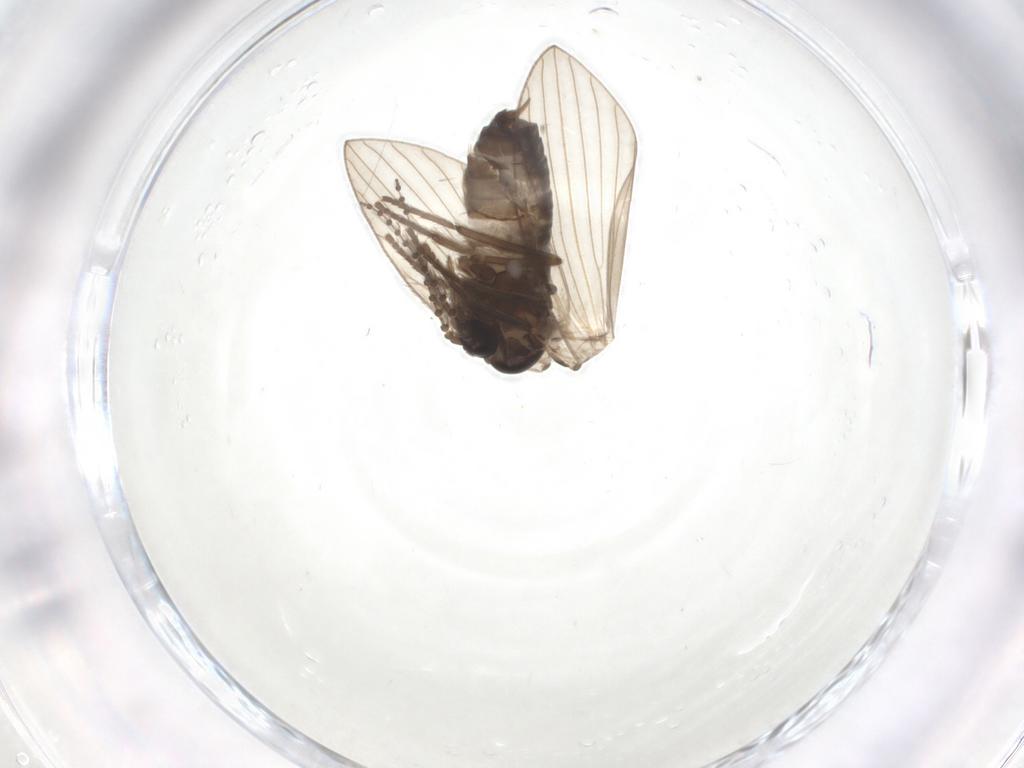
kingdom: Animalia
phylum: Arthropoda
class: Insecta
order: Diptera
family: Psychodidae
